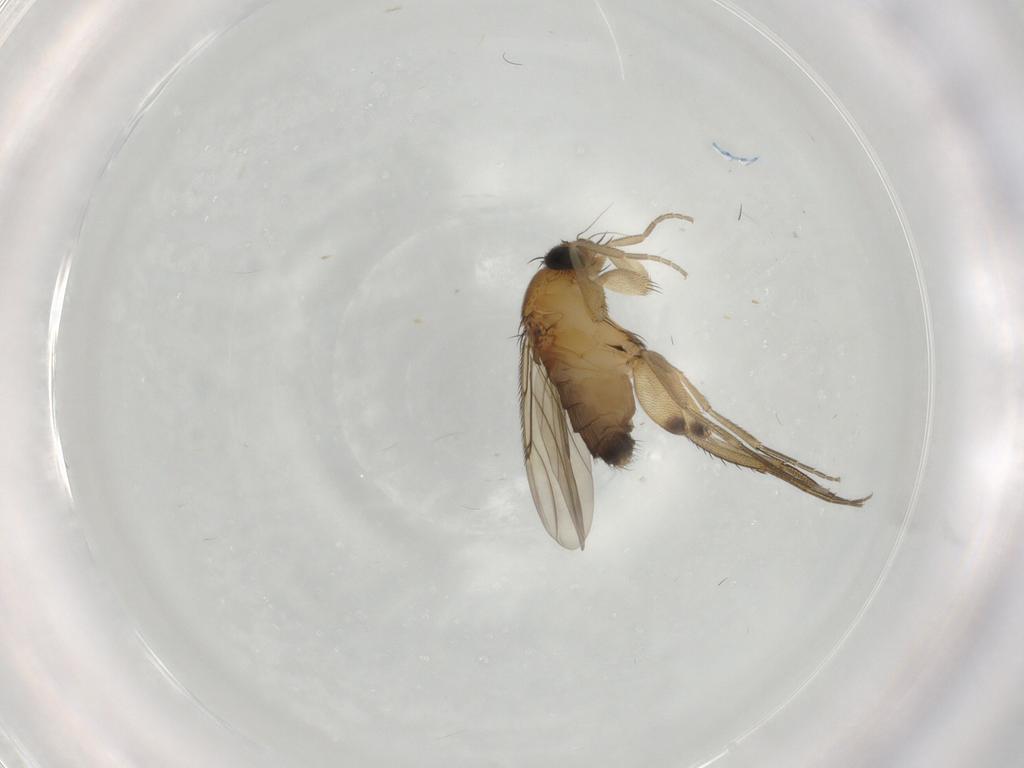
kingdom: Animalia
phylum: Arthropoda
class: Insecta
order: Diptera
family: Phoridae
